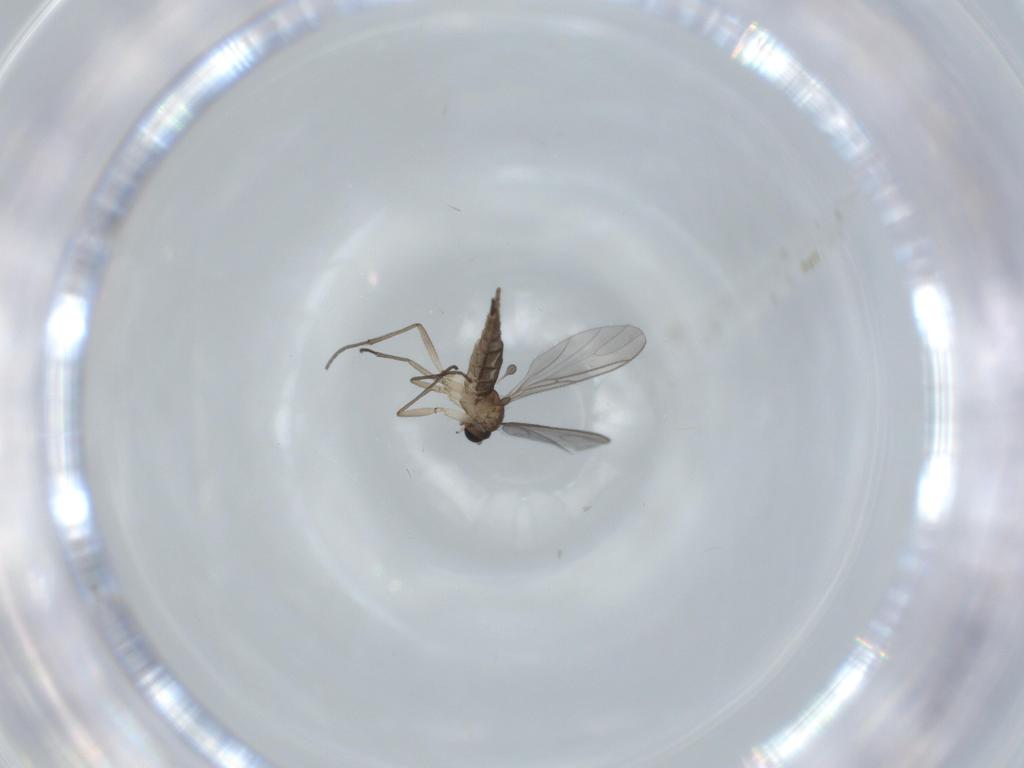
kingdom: Animalia
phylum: Arthropoda
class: Insecta
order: Diptera
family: Sciaridae
